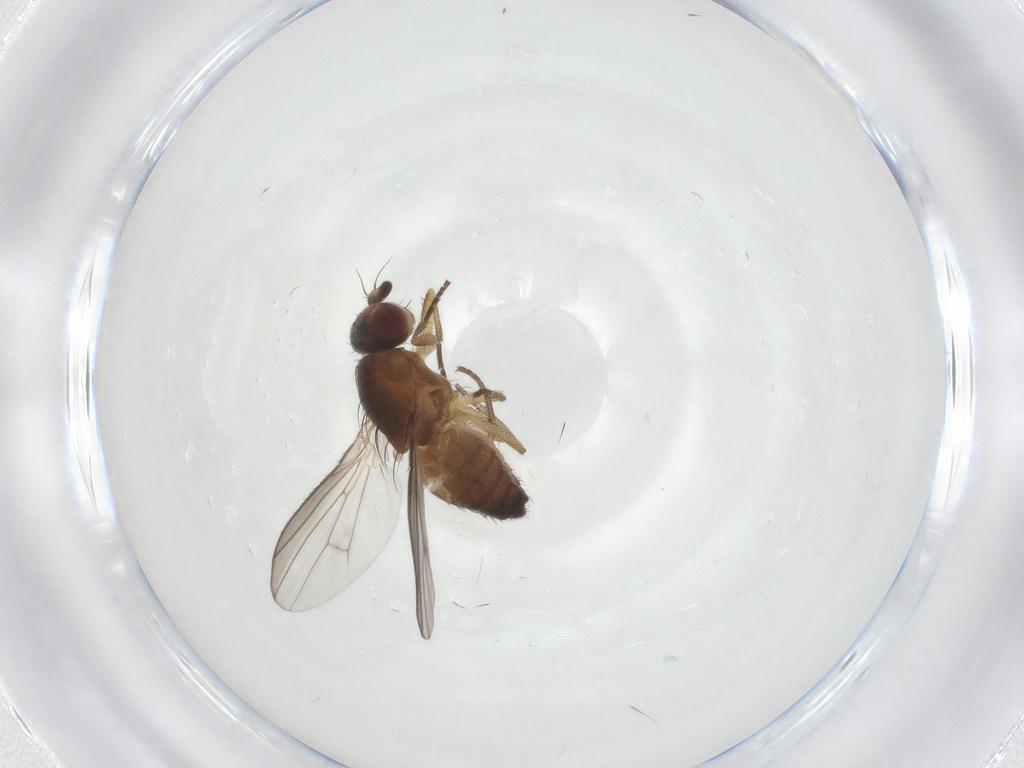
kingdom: Animalia
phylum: Arthropoda
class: Insecta
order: Diptera
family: Heleomyzidae
